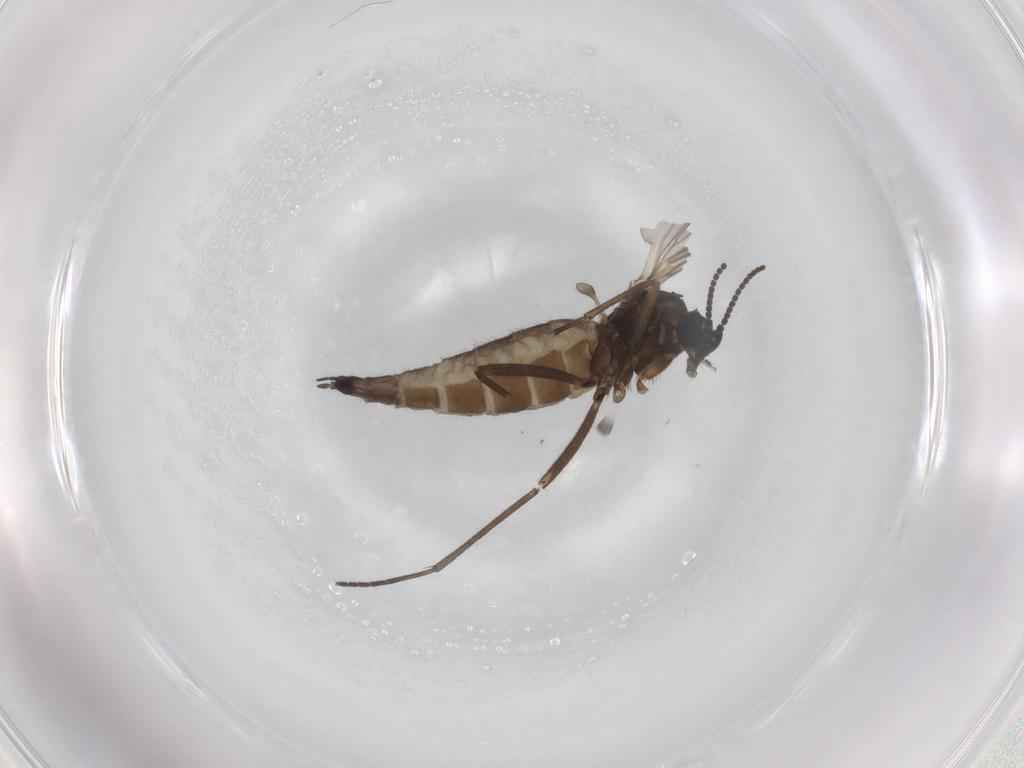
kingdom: Animalia
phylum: Arthropoda
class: Insecta
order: Diptera
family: Sciaridae
